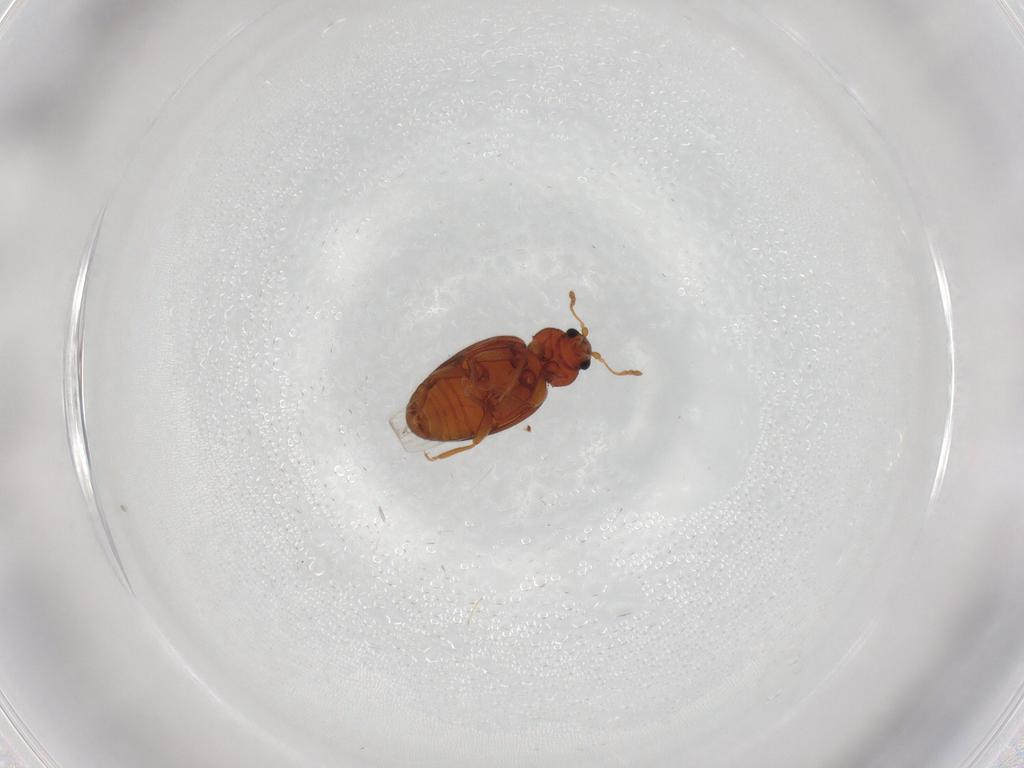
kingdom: Animalia
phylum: Arthropoda
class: Insecta
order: Coleoptera
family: Latridiidae
